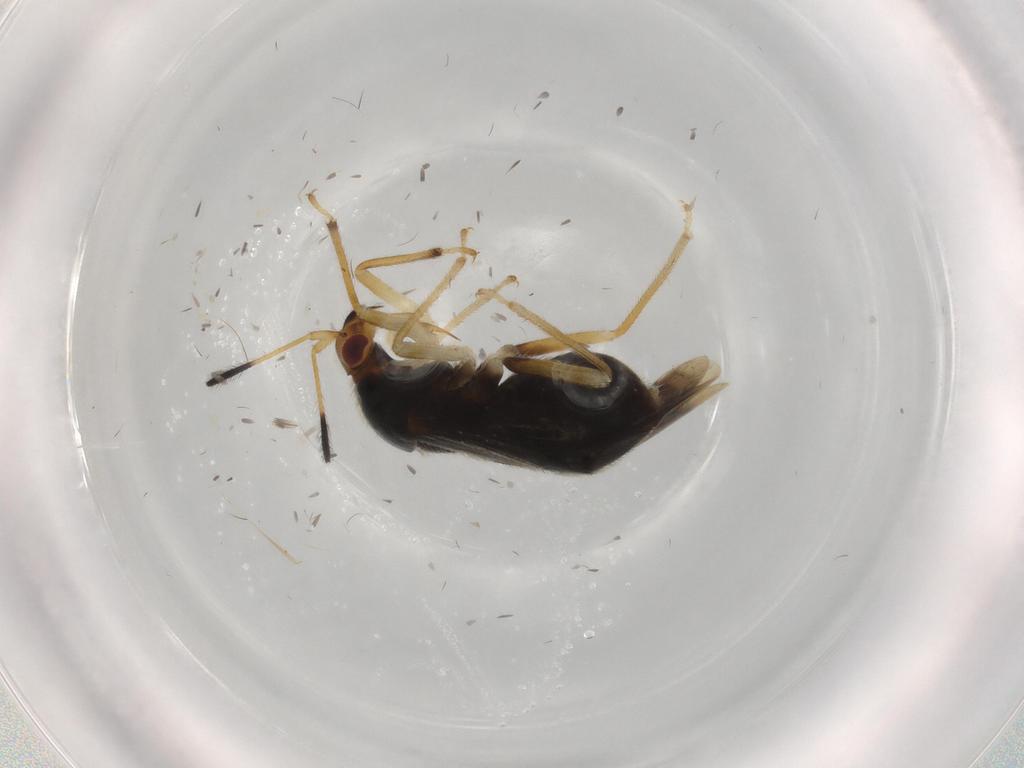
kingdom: Animalia
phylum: Arthropoda
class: Insecta
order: Hemiptera
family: Miridae
